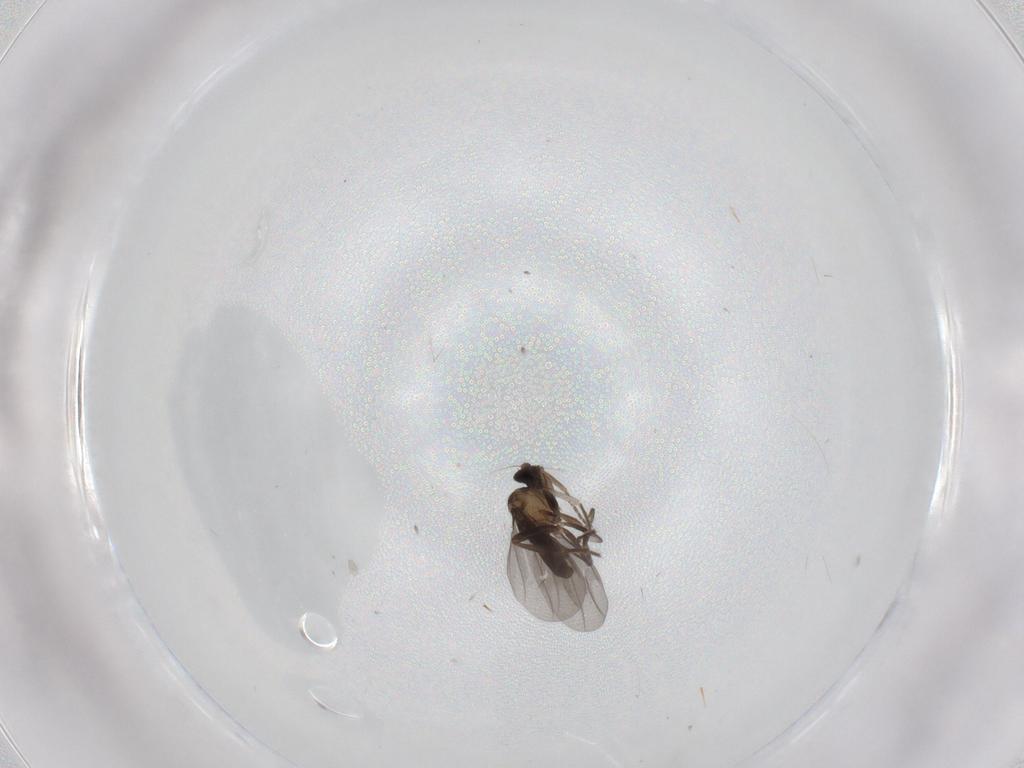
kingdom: Animalia
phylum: Arthropoda
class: Insecta
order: Diptera
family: Phoridae
